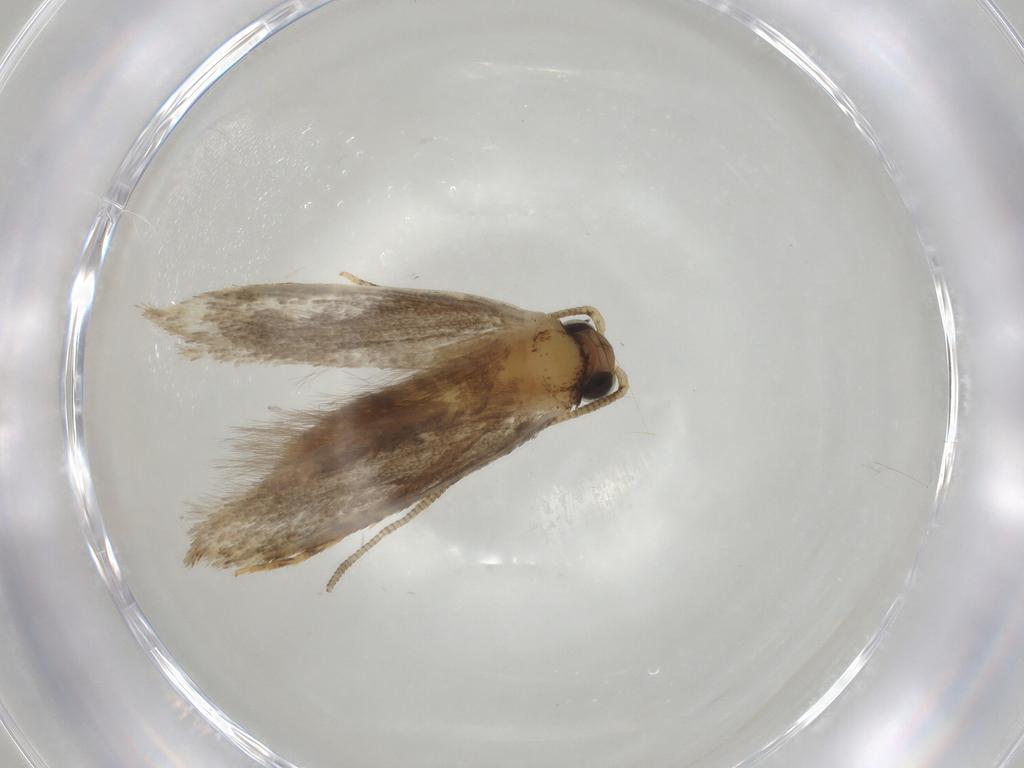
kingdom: Animalia
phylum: Arthropoda
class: Insecta
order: Lepidoptera
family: Tineidae
